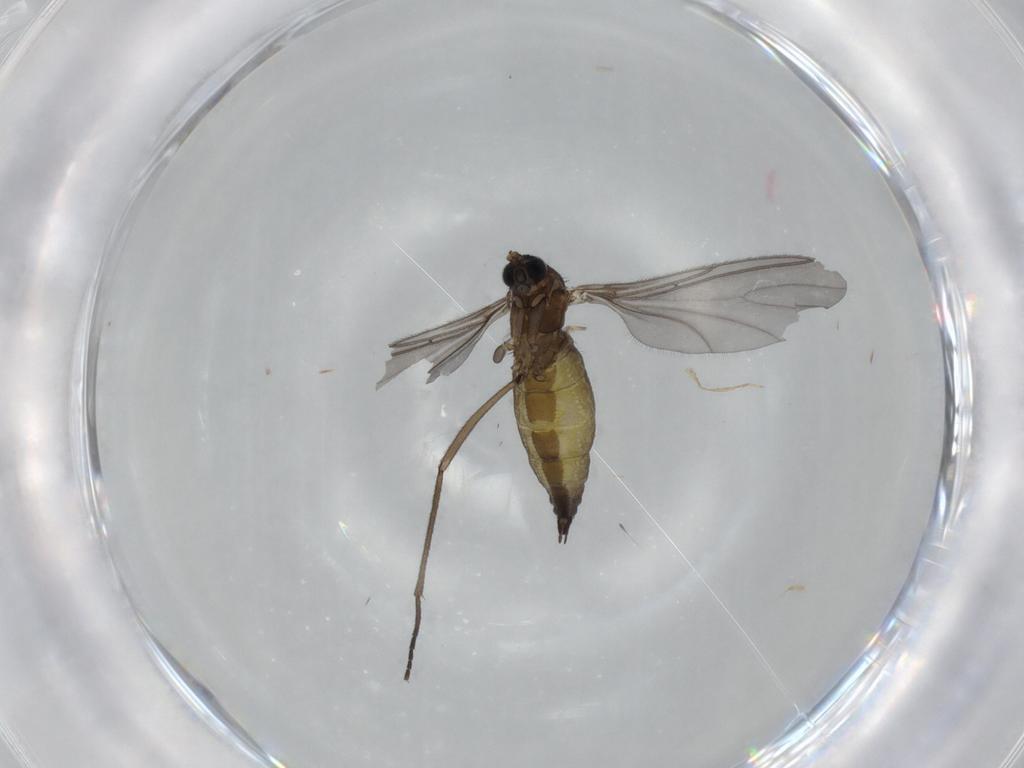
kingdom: Animalia
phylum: Arthropoda
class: Insecta
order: Diptera
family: Sciaridae
